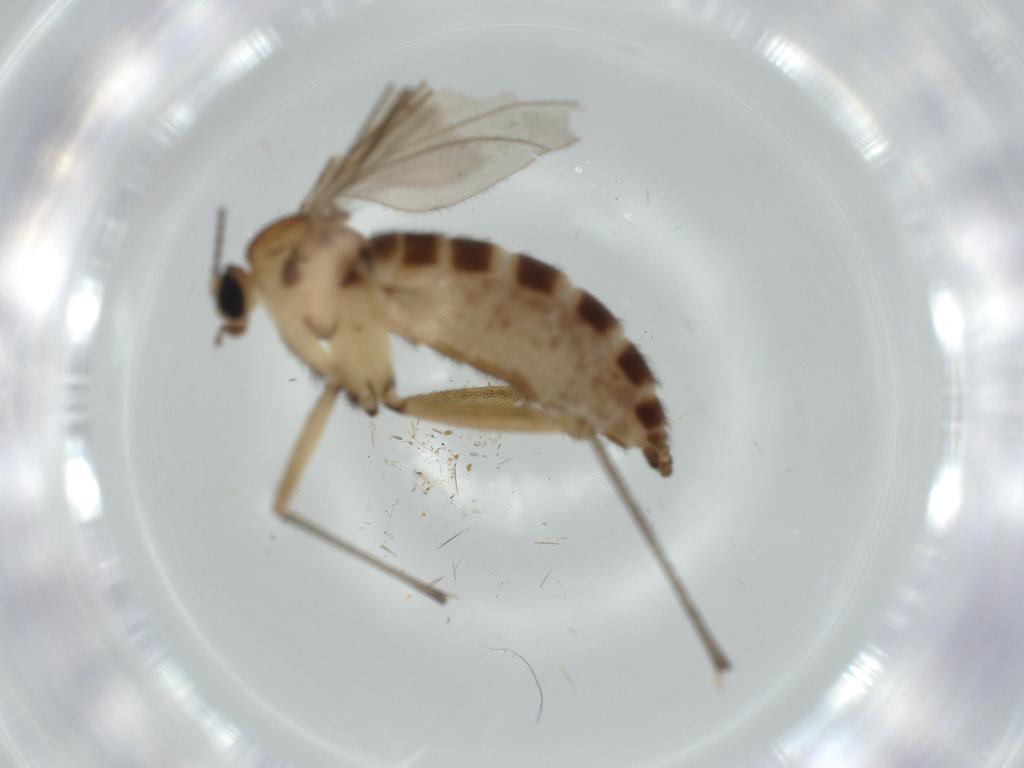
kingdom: Animalia
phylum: Arthropoda
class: Insecta
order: Diptera
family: Sciaridae
